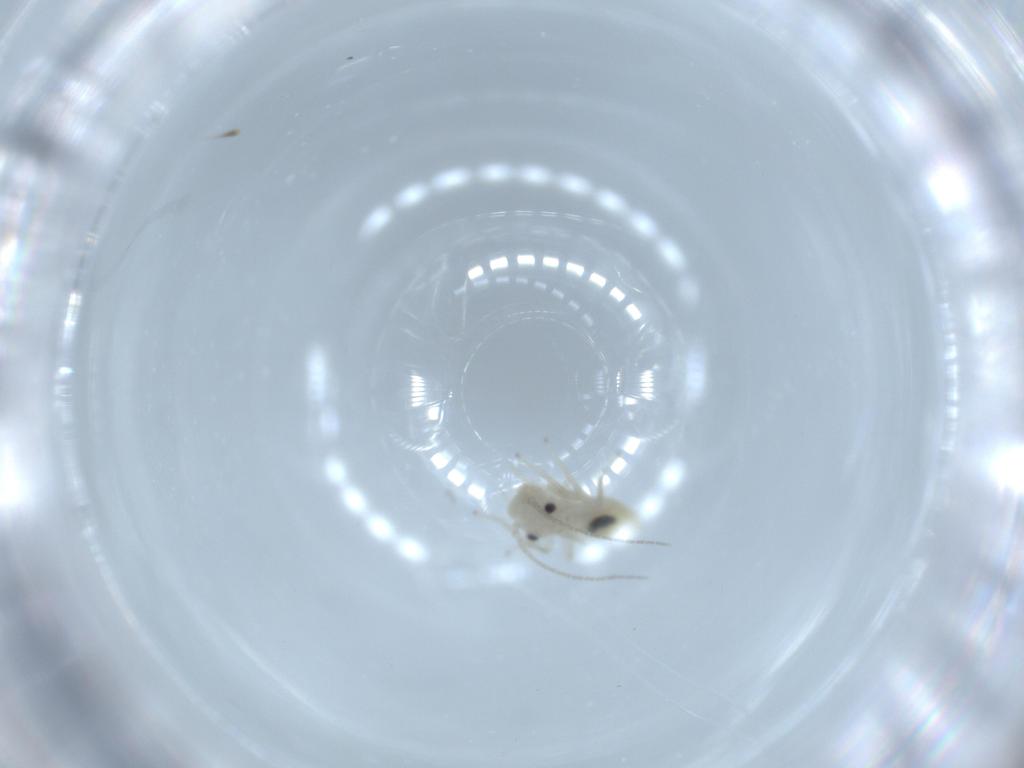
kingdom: Animalia
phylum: Arthropoda
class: Insecta
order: Psocodea
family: Caeciliusidae
